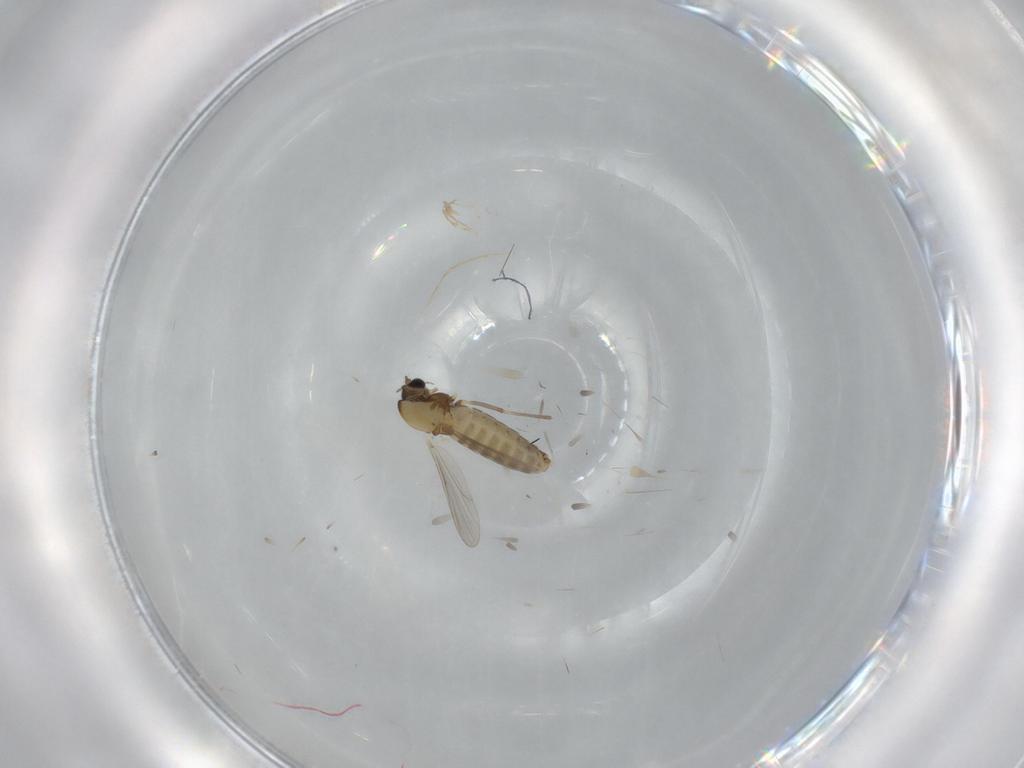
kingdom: Animalia
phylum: Arthropoda
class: Insecta
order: Diptera
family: Chironomidae
